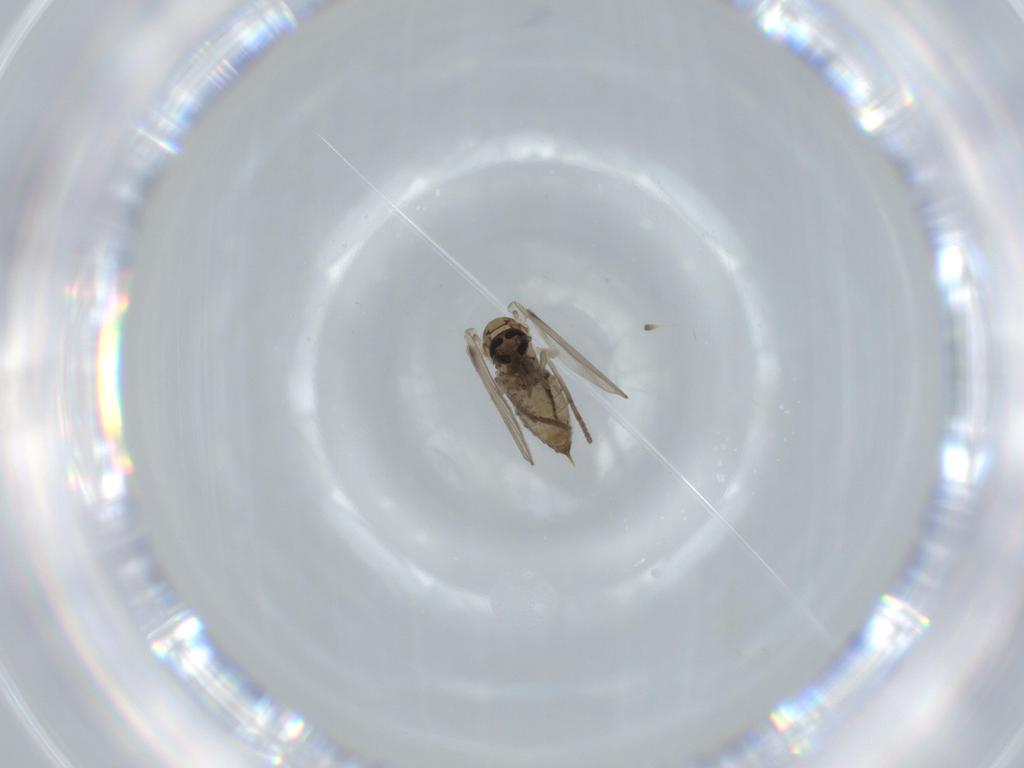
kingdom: Animalia
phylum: Arthropoda
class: Insecta
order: Diptera
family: Psychodidae
